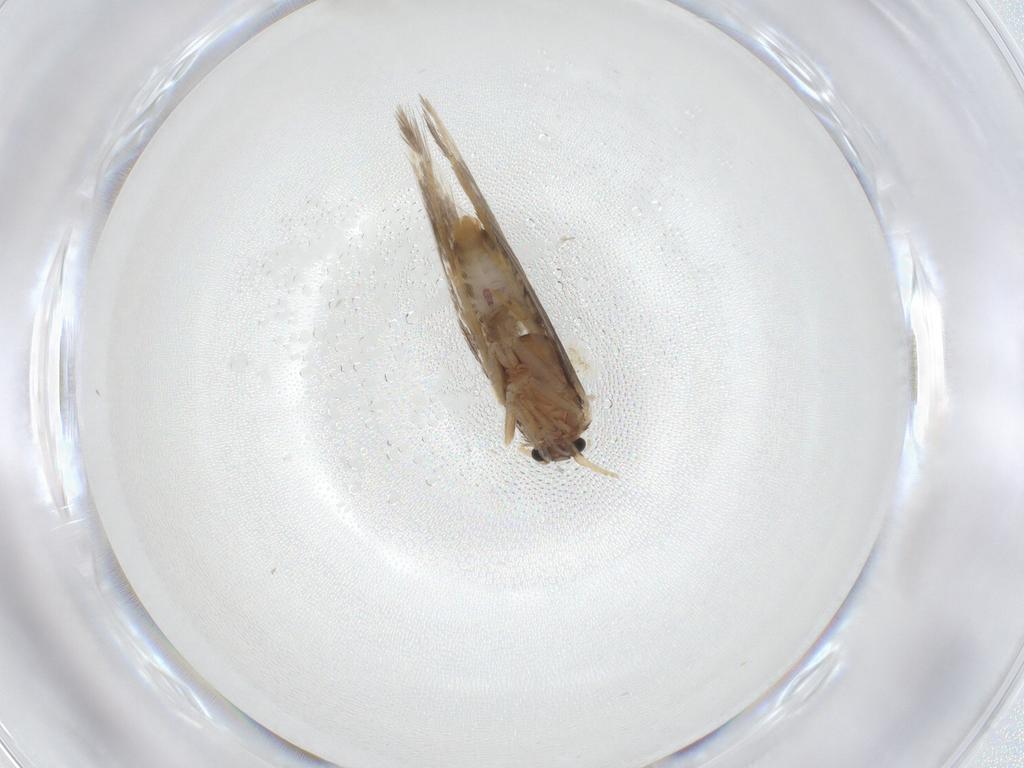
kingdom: Animalia
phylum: Arthropoda
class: Insecta
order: Lepidoptera
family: Nepticulidae
